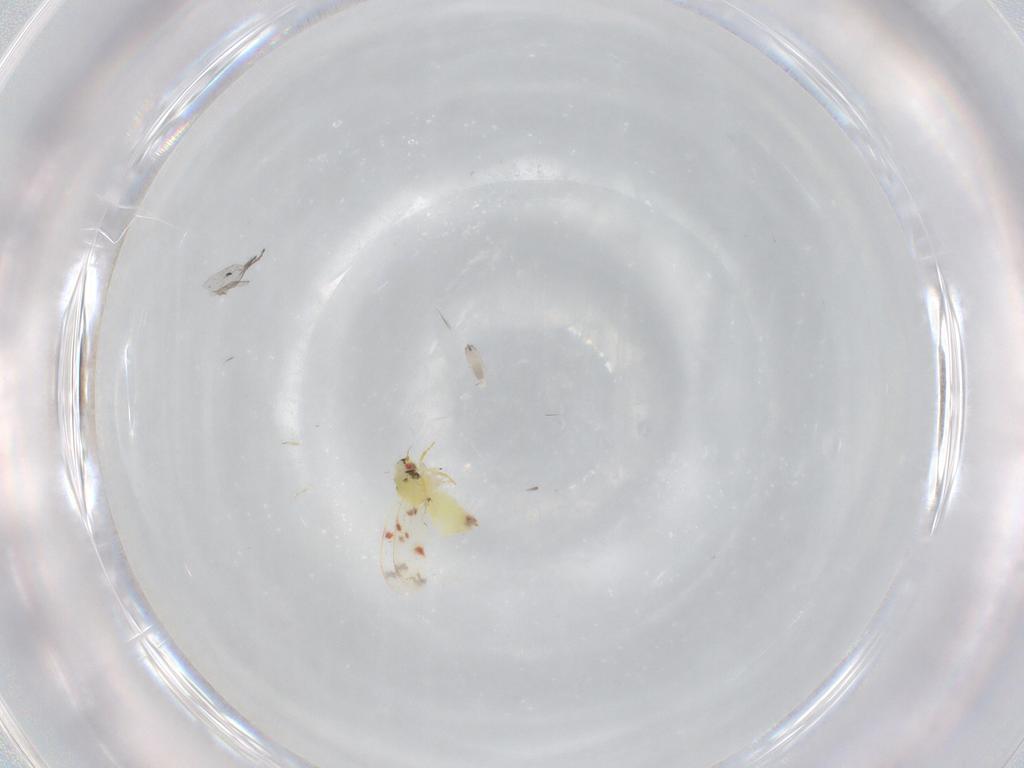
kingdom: Animalia
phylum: Arthropoda
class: Insecta
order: Hemiptera
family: Aleyrodidae
